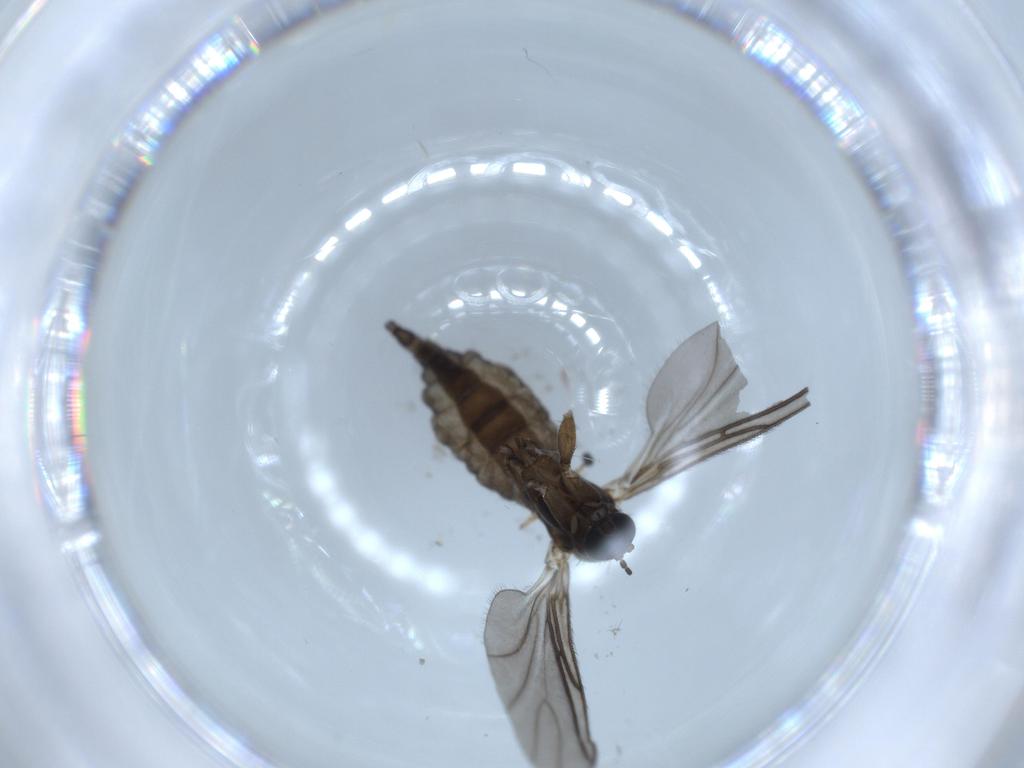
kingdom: Animalia
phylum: Arthropoda
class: Insecta
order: Diptera
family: Sciaridae
